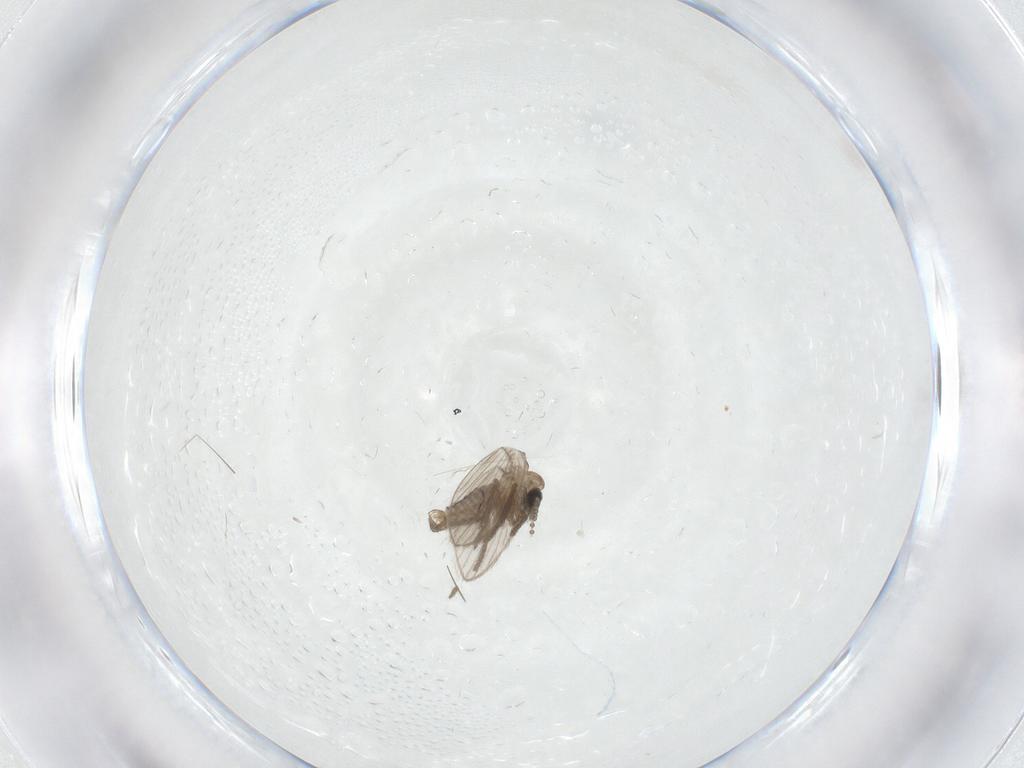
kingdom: Animalia
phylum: Arthropoda
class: Insecta
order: Diptera
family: Psychodidae
